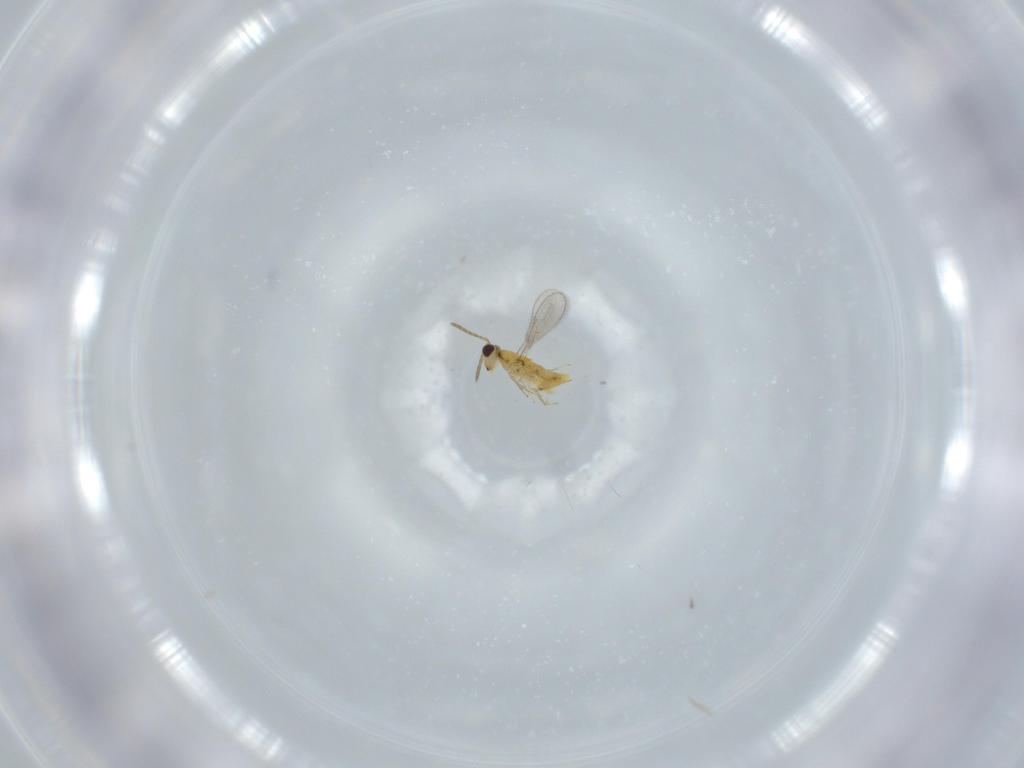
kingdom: Animalia
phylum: Arthropoda
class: Insecta
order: Hymenoptera
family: Aphelinidae
